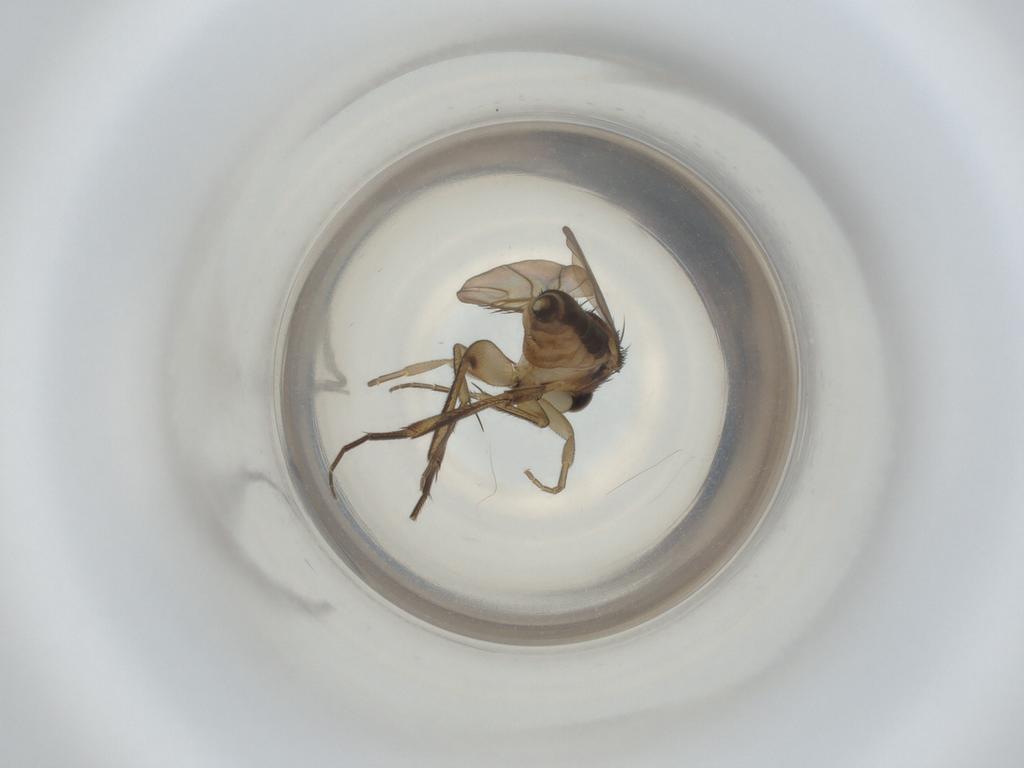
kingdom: Animalia
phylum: Arthropoda
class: Insecta
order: Diptera
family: Phoridae
